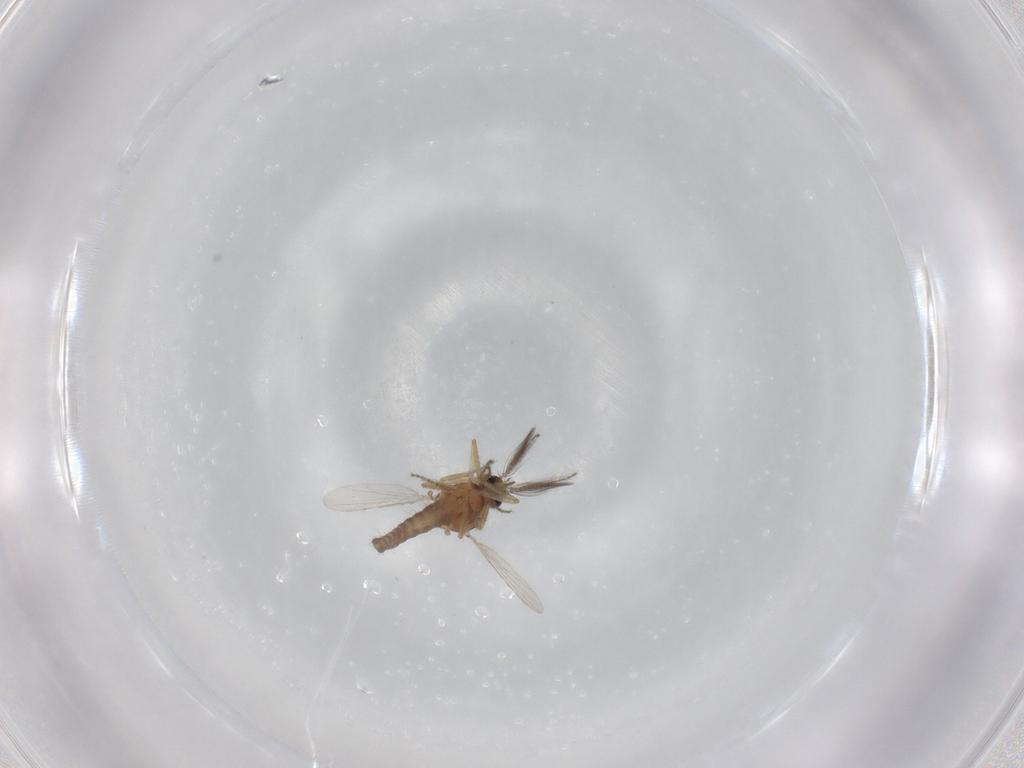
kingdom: Animalia
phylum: Arthropoda
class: Insecta
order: Diptera
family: Ceratopogonidae
